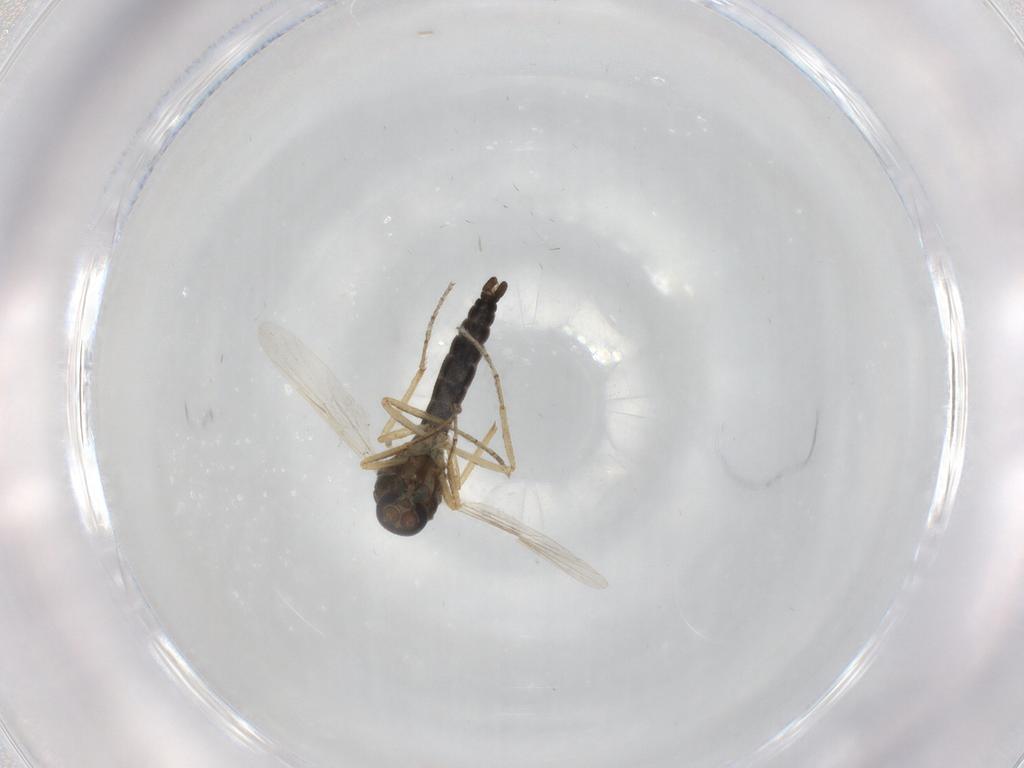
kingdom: Animalia
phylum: Arthropoda
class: Insecta
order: Diptera
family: Chironomidae
